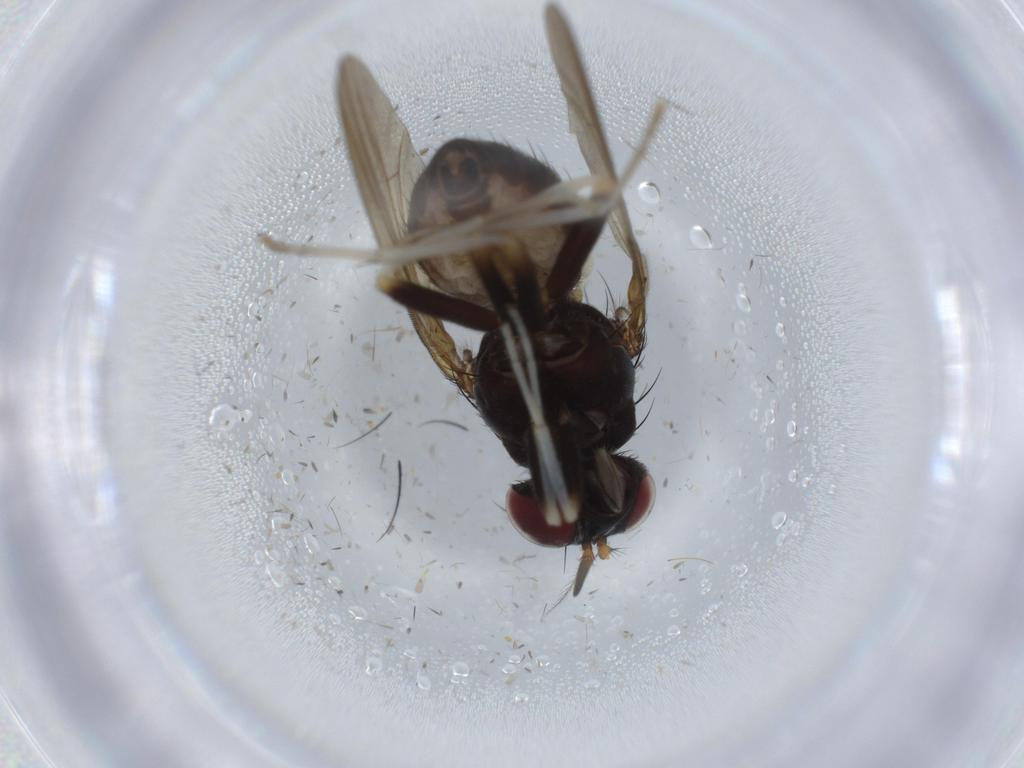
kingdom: Animalia
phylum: Arthropoda
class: Insecta
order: Diptera
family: Lauxaniidae
